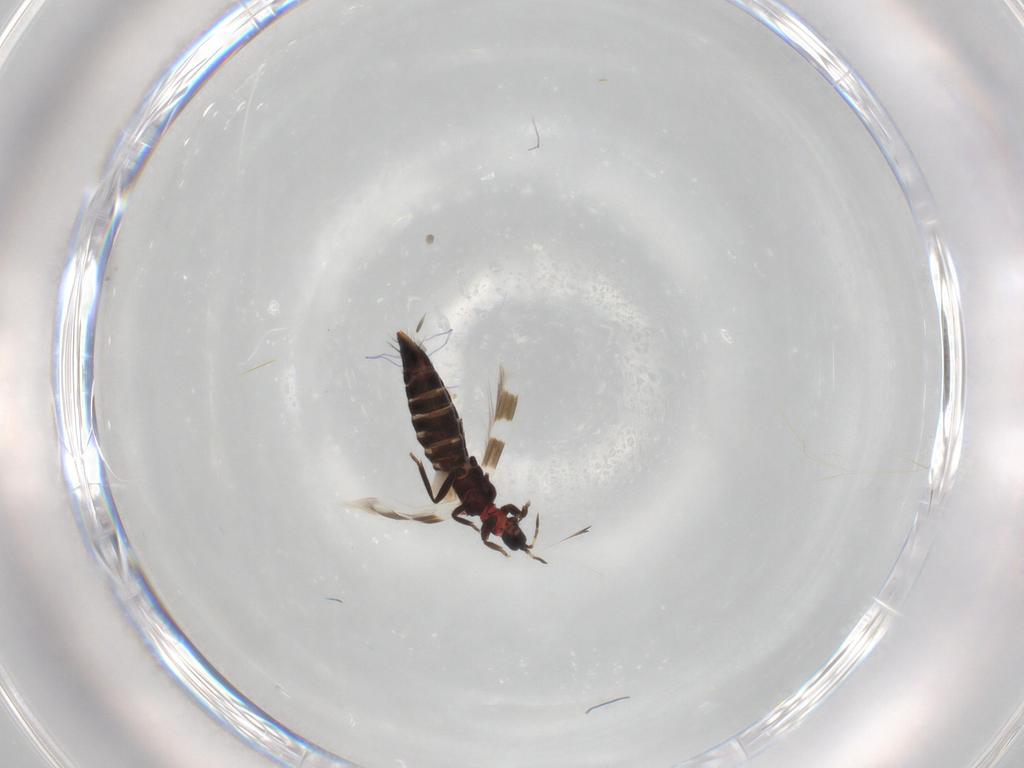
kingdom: Animalia
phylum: Arthropoda
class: Insecta
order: Thysanoptera
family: Aeolothripidae
